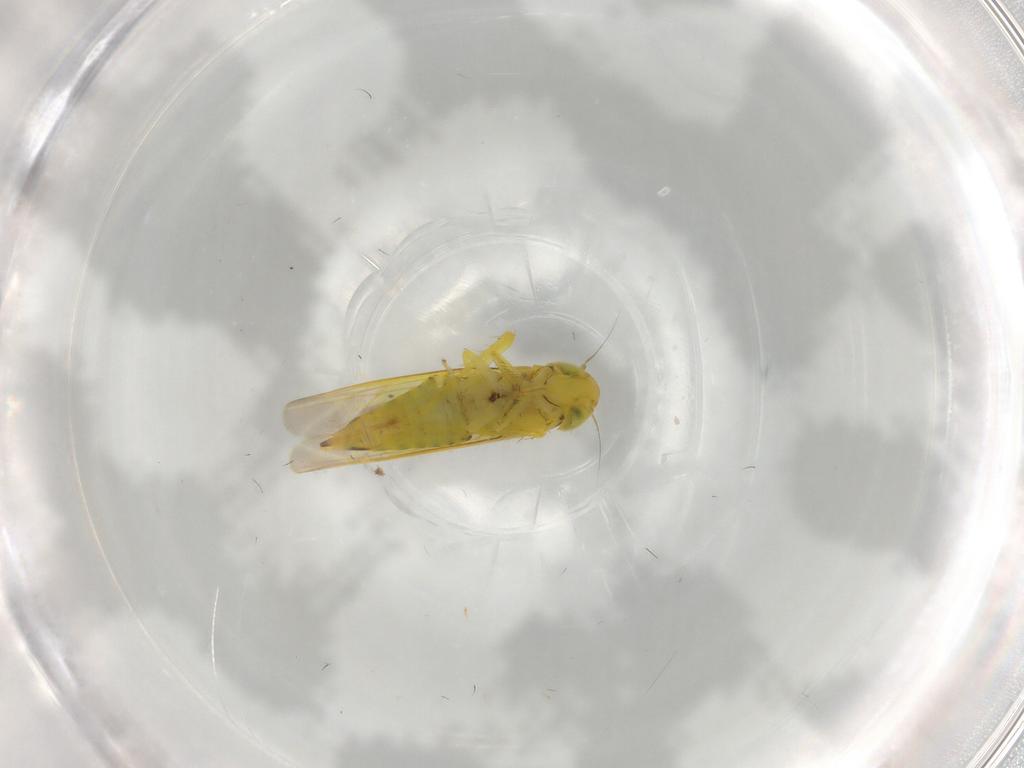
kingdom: Animalia
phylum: Arthropoda
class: Insecta
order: Hemiptera
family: Cicadellidae
